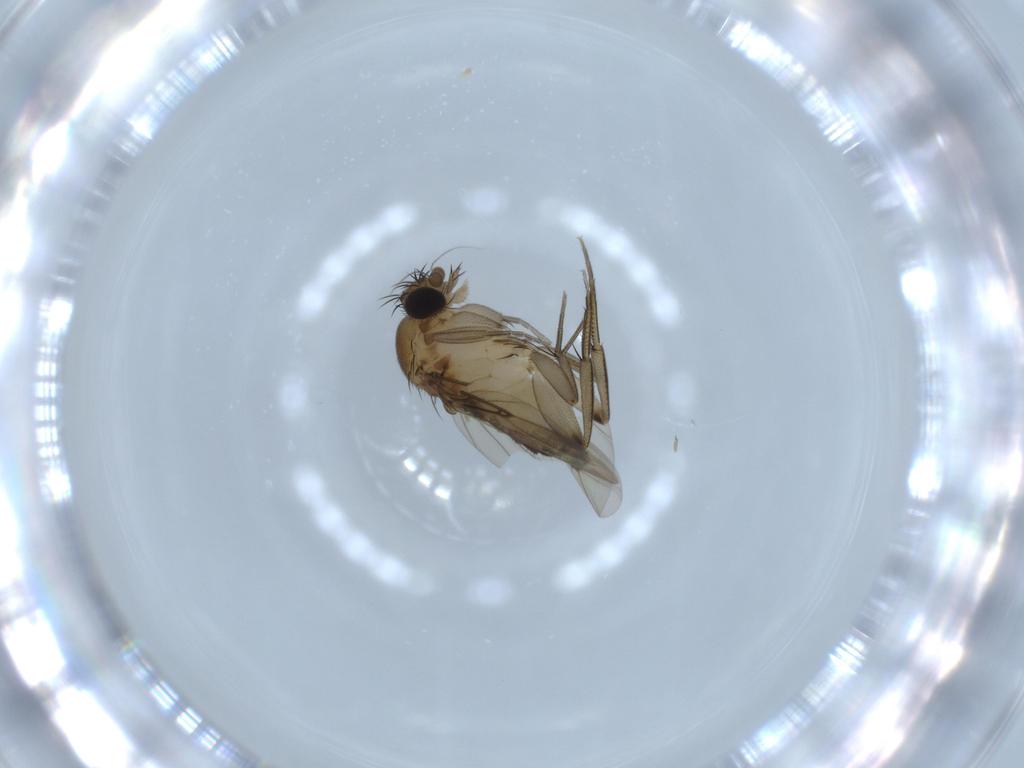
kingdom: Animalia
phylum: Arthropoda
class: Insecta
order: Diptera
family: Phoridae
